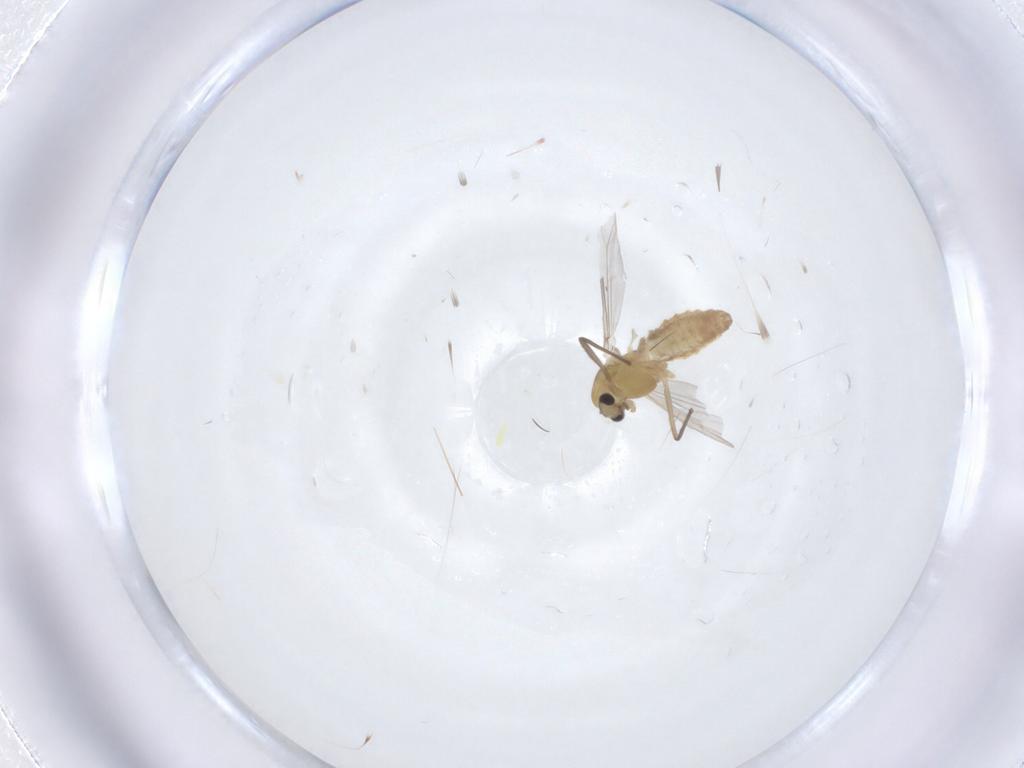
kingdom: Animalia
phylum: Arthropoda
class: Insecta
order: Diptera
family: Chironomidae
